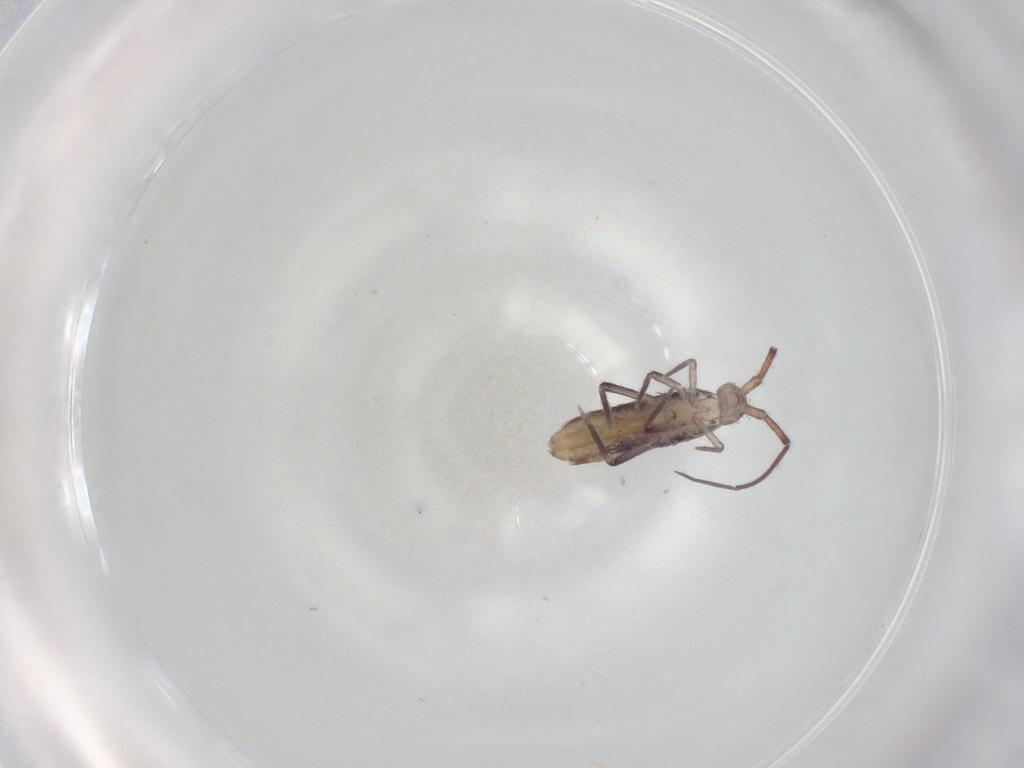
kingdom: Animalia
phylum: Arthropoda
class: Collembola
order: Entomobryomorpha
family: Entomobryidae
